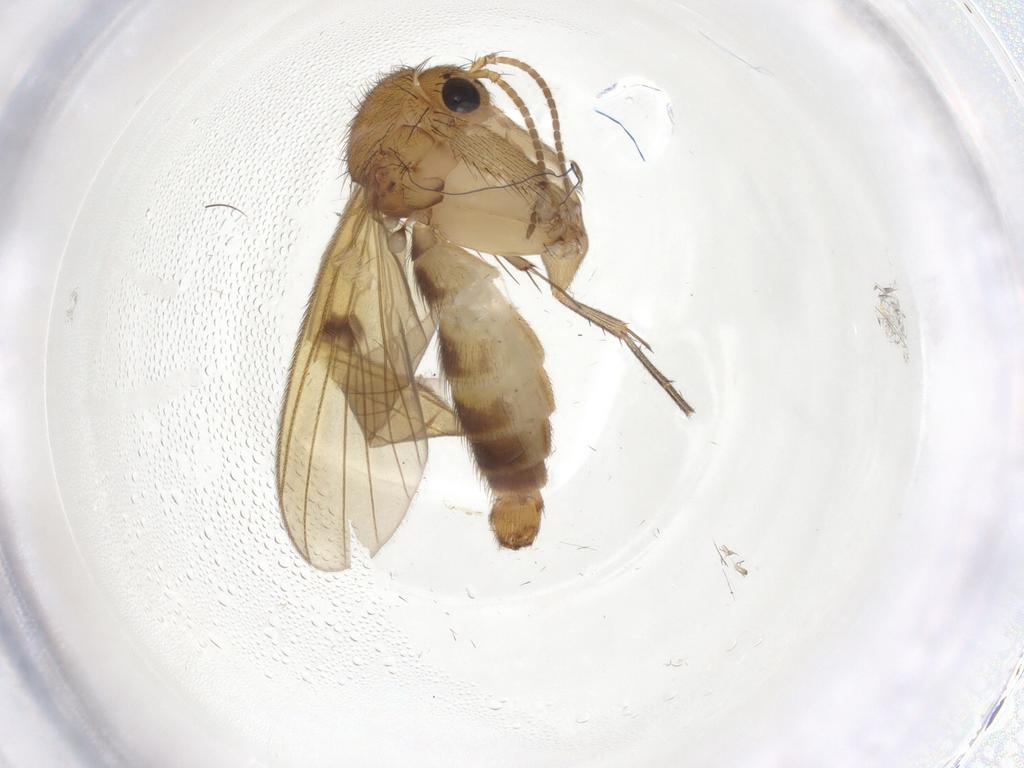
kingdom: Animalia
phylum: Arthropoda
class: Insecta
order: Diptera
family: Sciaridae
